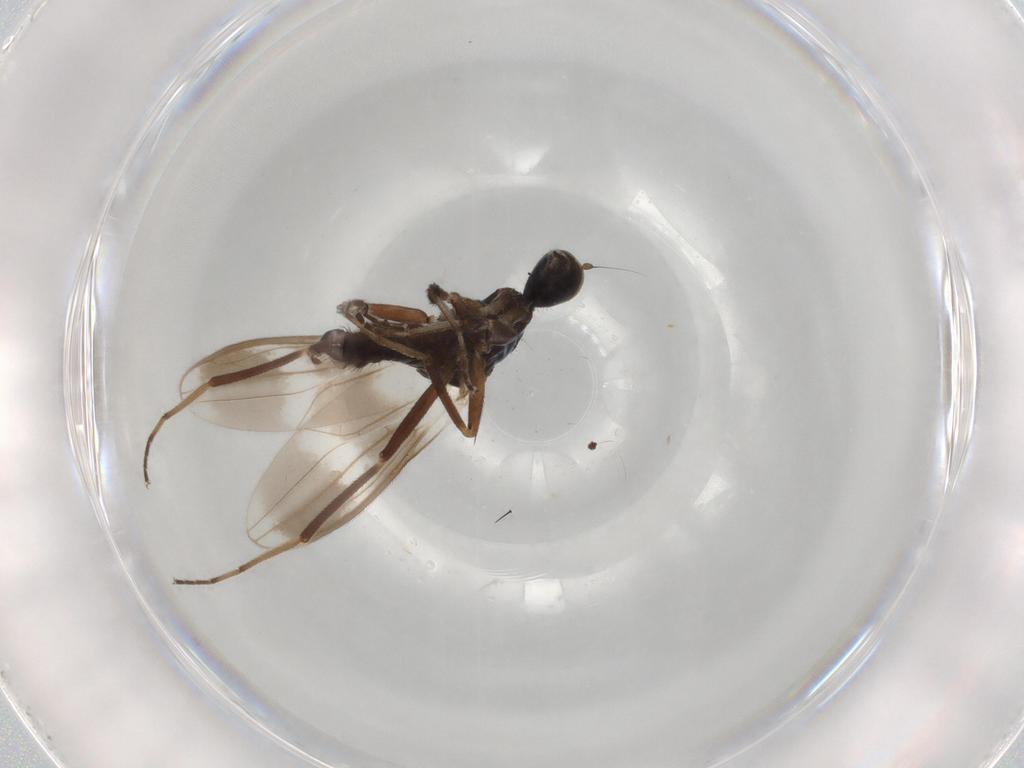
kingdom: Animalia
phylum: Arthropoda
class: Insecta
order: Diptera
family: Hybotidae
